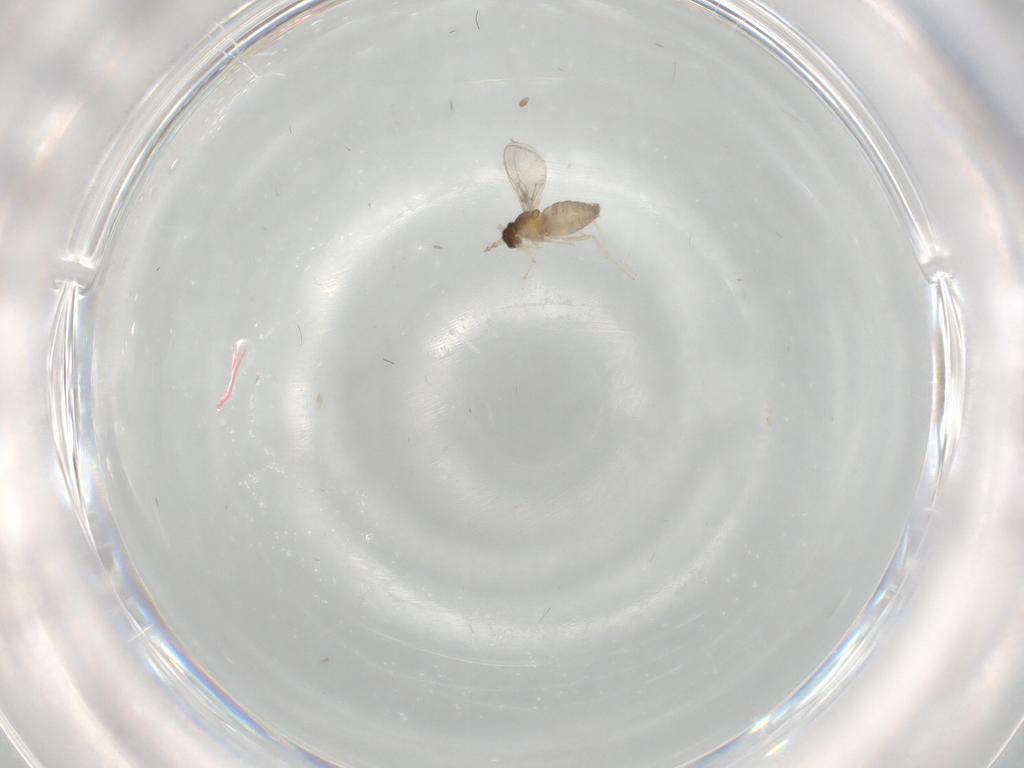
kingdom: Animalia
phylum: Arthropoda
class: Insecta
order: Diptera
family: Cecidomyiidae
